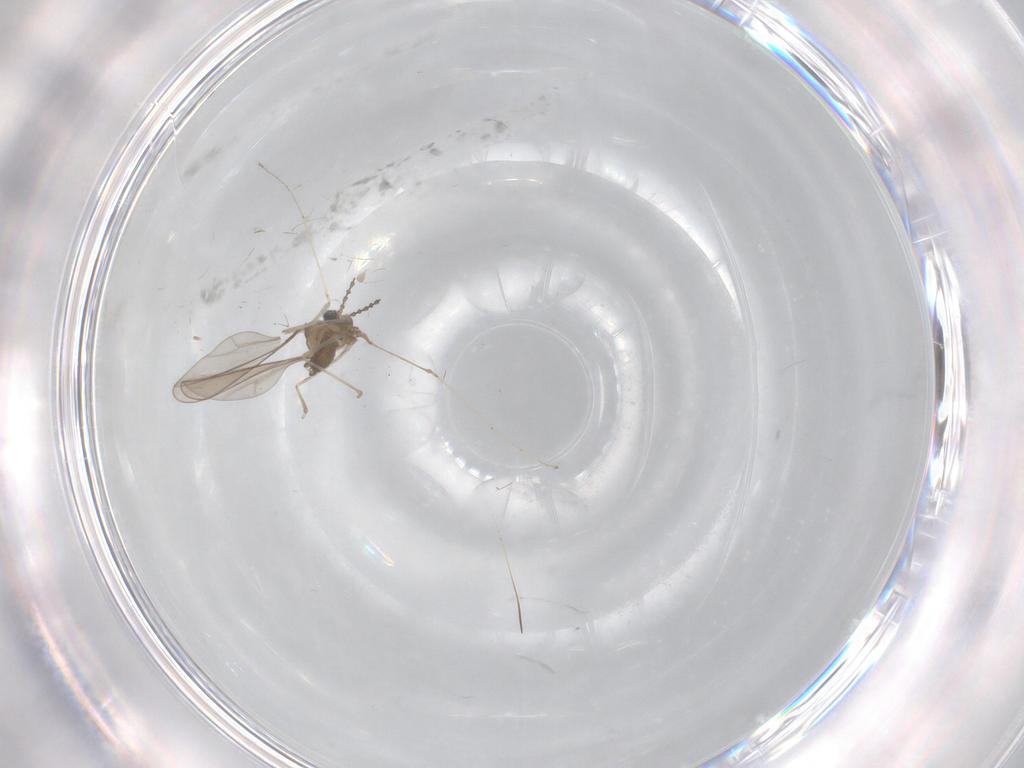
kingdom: Animalia
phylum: Arthropoda
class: Insecta
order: Diptera
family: Cecidomyiidae
